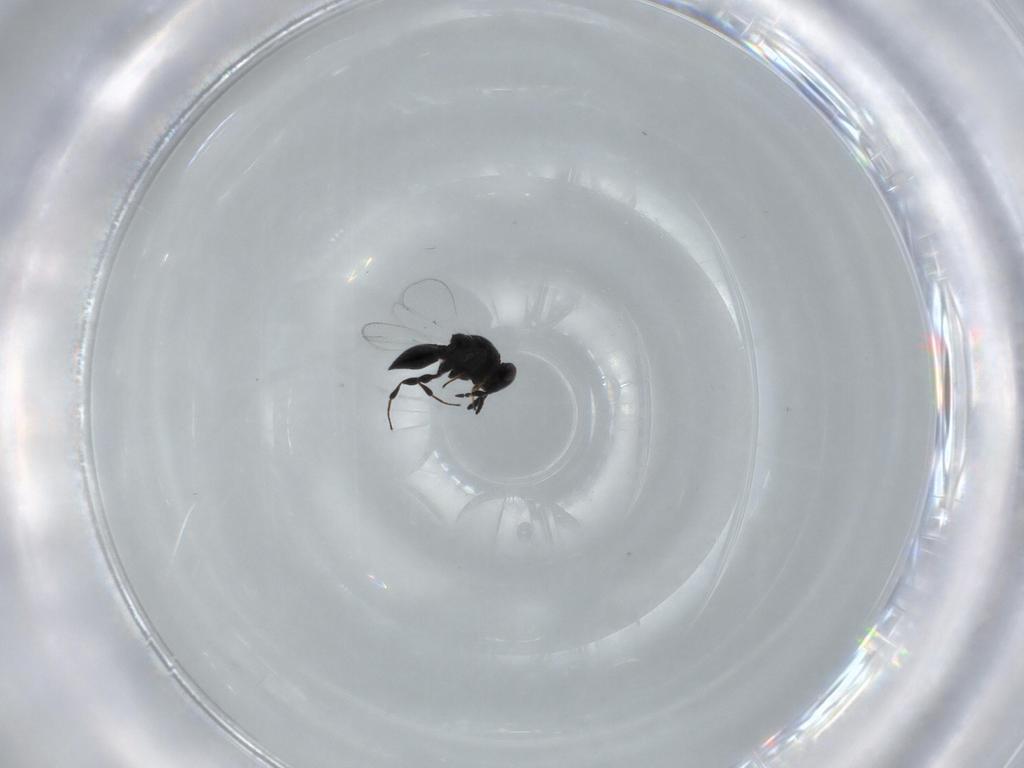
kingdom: Animalia
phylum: Arthropoda
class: Insecta
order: Hymenoptera
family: Platygastridae
